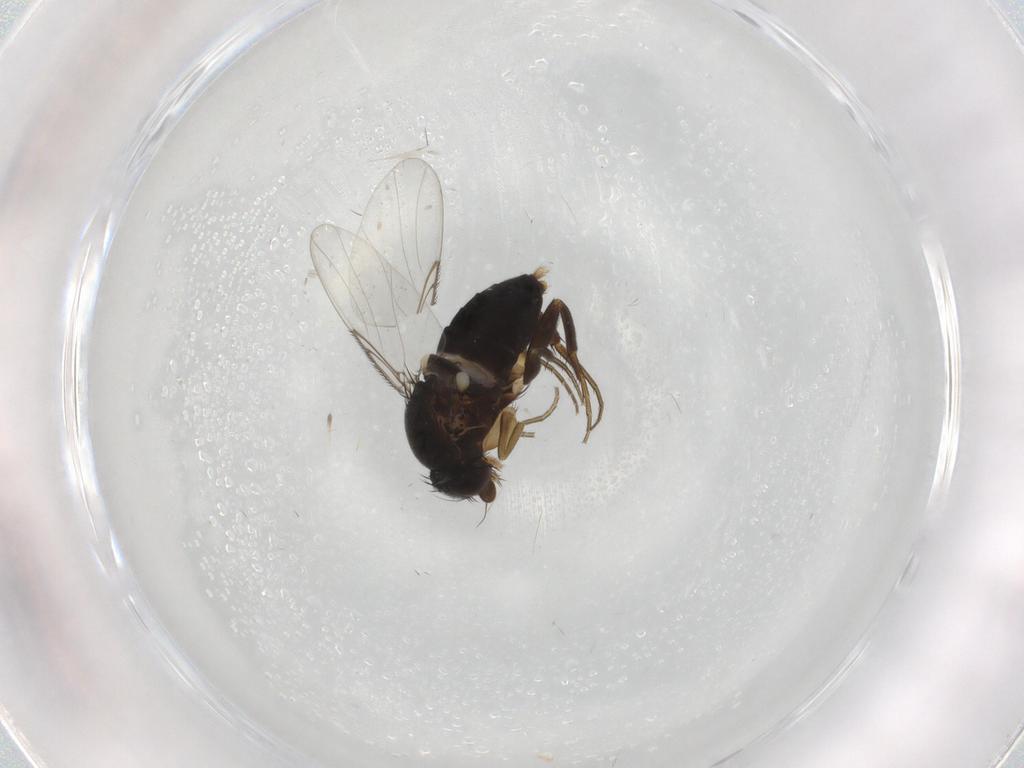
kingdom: Animalia
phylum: Arthropoda
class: Insecta
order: Diptera
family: Phoridae
